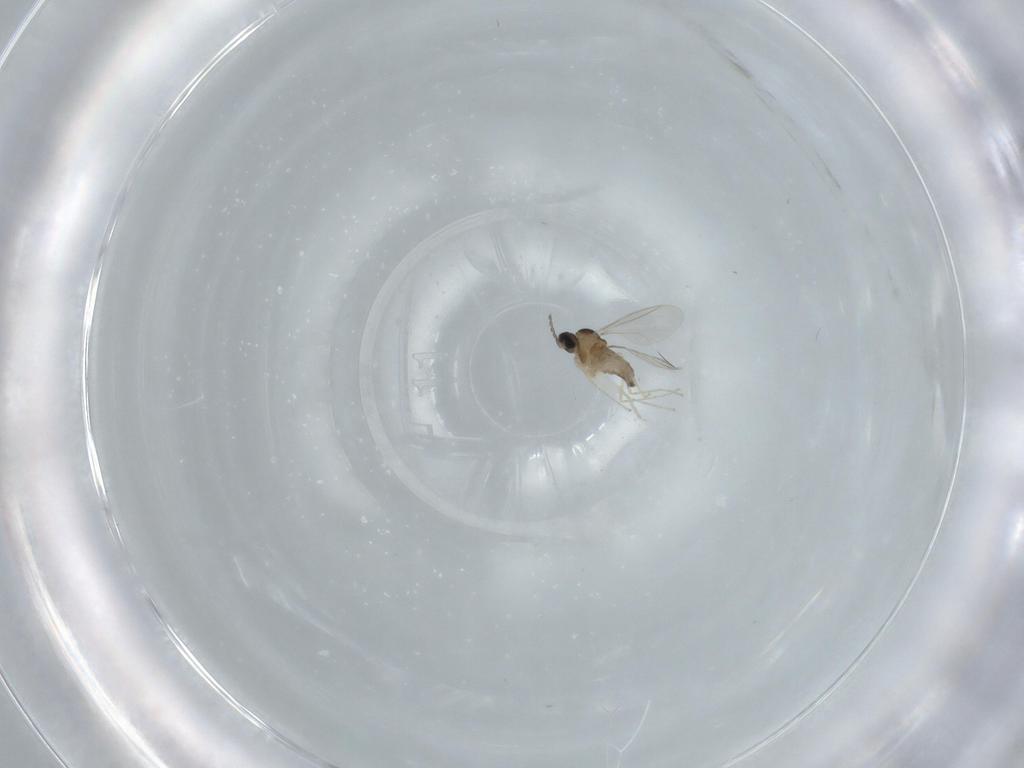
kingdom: Animalia
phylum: Arthropoda
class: Insecta
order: Diptera
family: Cecidomyiidae
